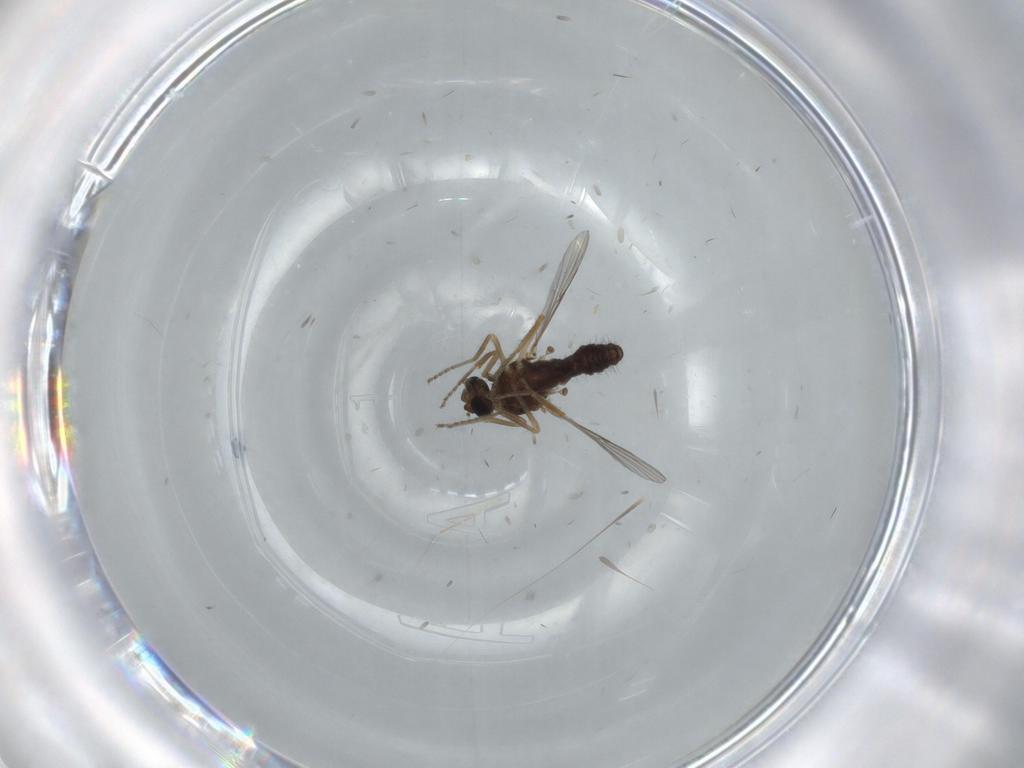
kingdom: Animalia
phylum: Arthropoda
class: Insecta
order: Diptera
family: Ceratopogonidae
